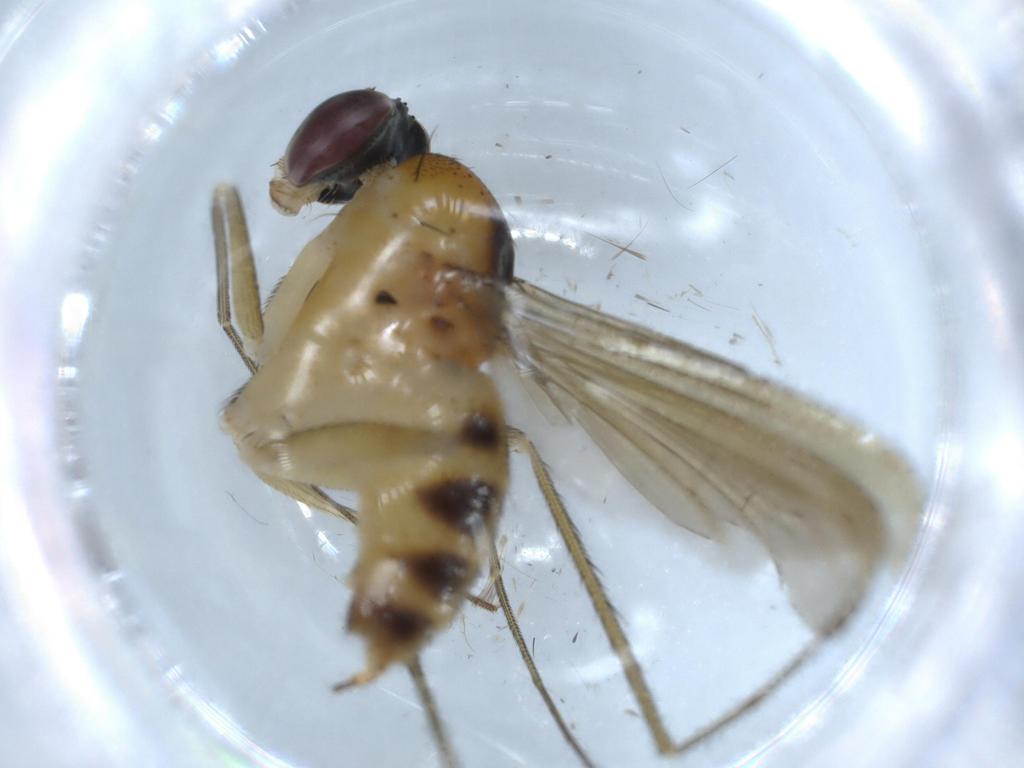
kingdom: Animalia
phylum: Arthropoda
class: Insecta
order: Diptera
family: Dolichopodidae
